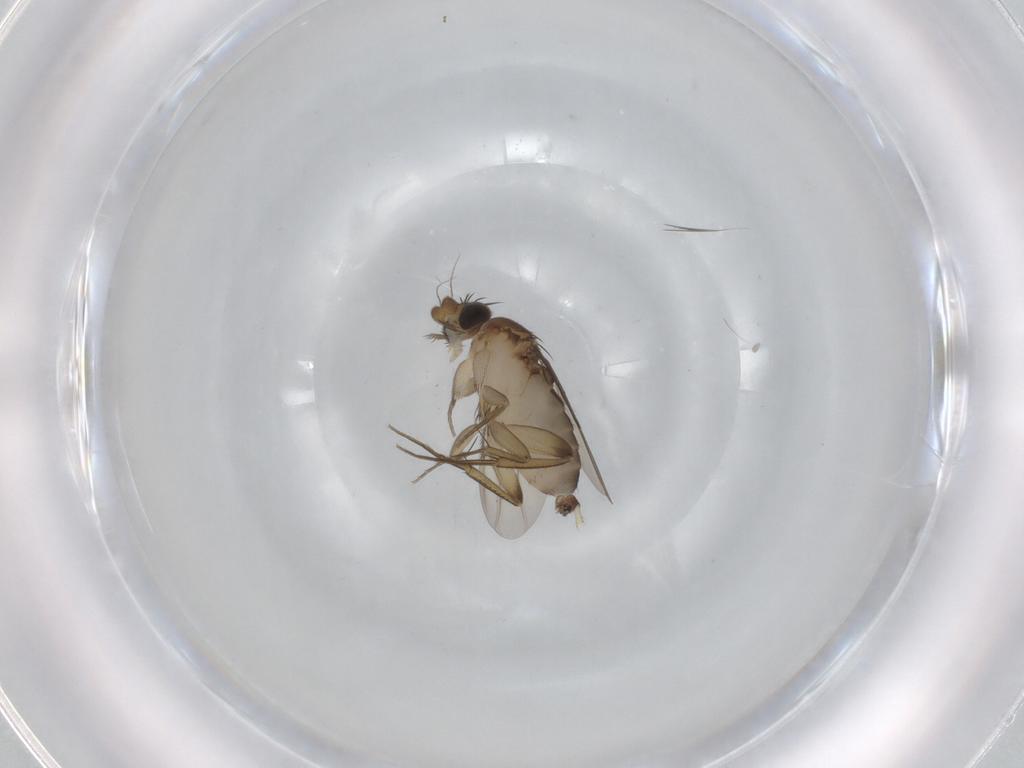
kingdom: Animalia
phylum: Arthropoda
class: Insecta
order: Diptera
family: Phoridae
